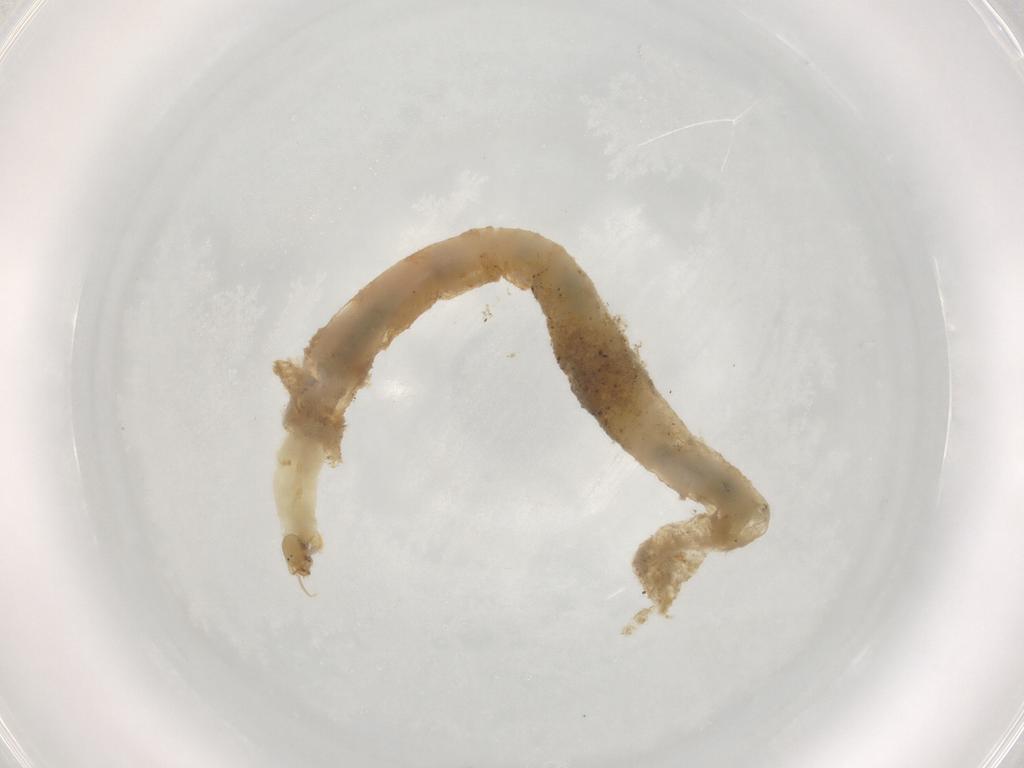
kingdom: Animalia
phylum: Arthropoda
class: Insecta
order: Diptera
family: Chironomidae
